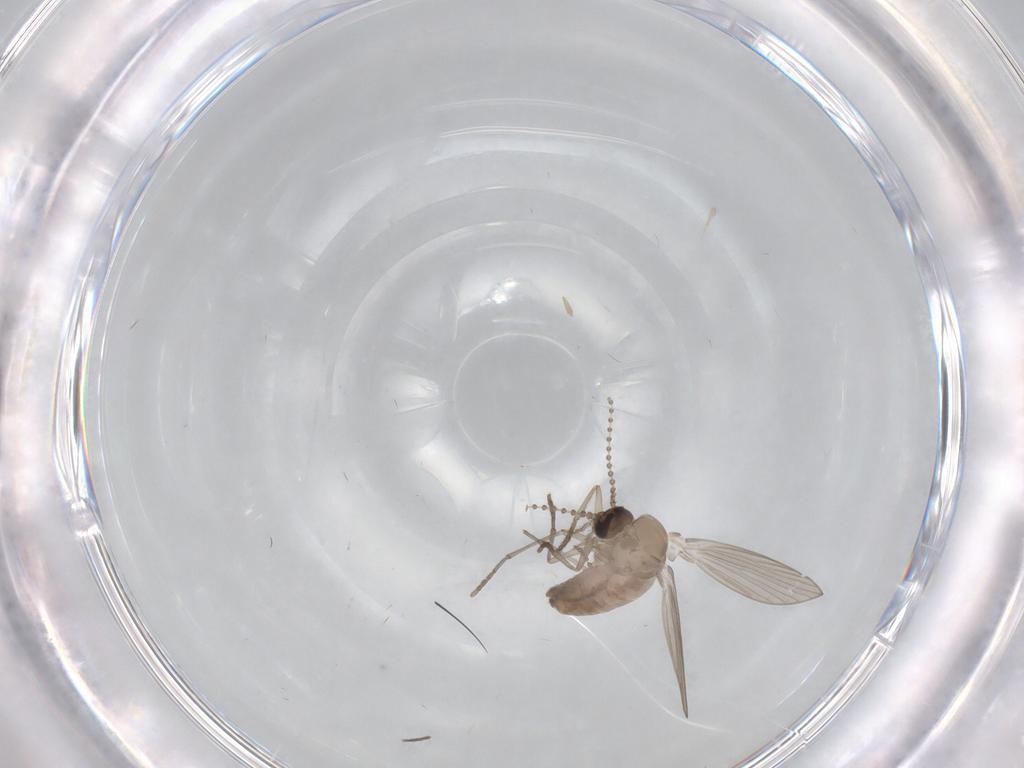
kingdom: Animalia
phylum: Arthropoda
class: Insecta
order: Diptera
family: Psychodidae
